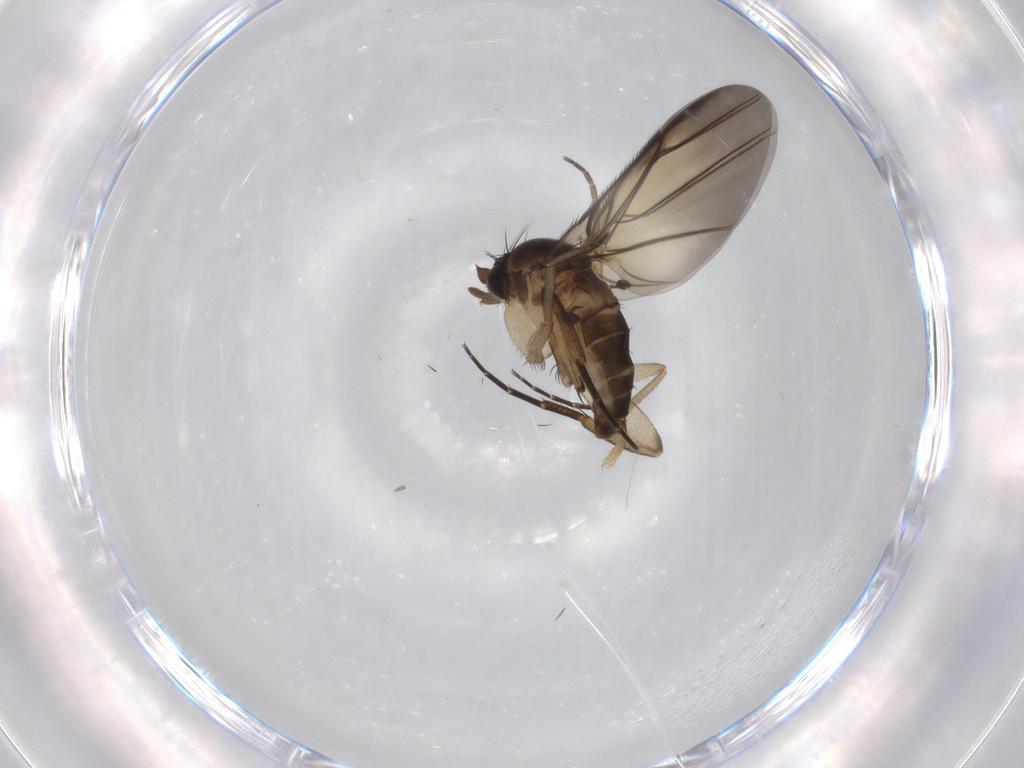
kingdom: Animalia
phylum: Arthropoda
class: Insecta
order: Diptera
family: Phoridae
